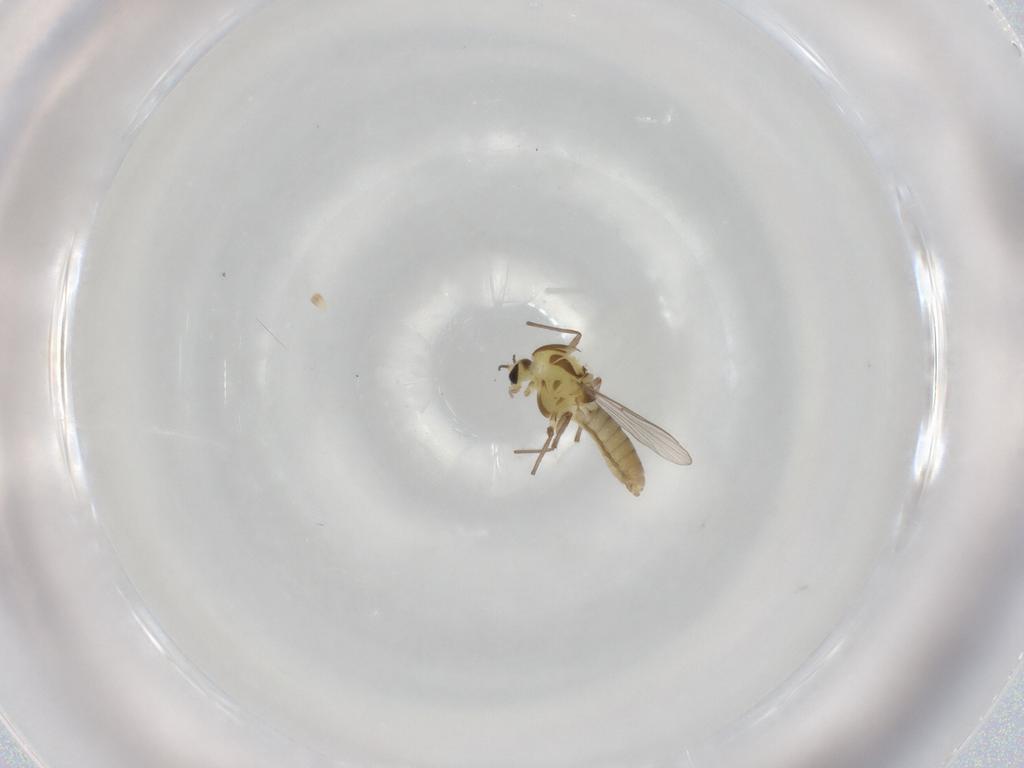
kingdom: Animalia
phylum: Arthropoda
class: Insecta
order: Diptera
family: Chironomidae
